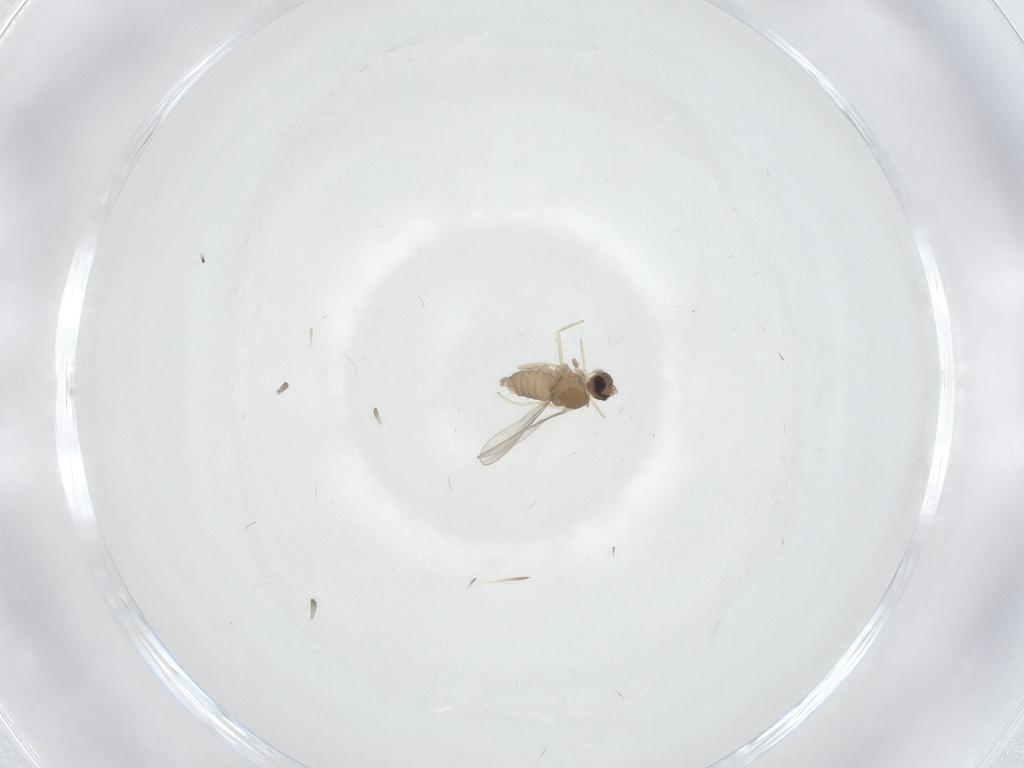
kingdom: Animalia
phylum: Arthropoda
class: Insecta
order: Diptera
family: Cecidomyiidae
